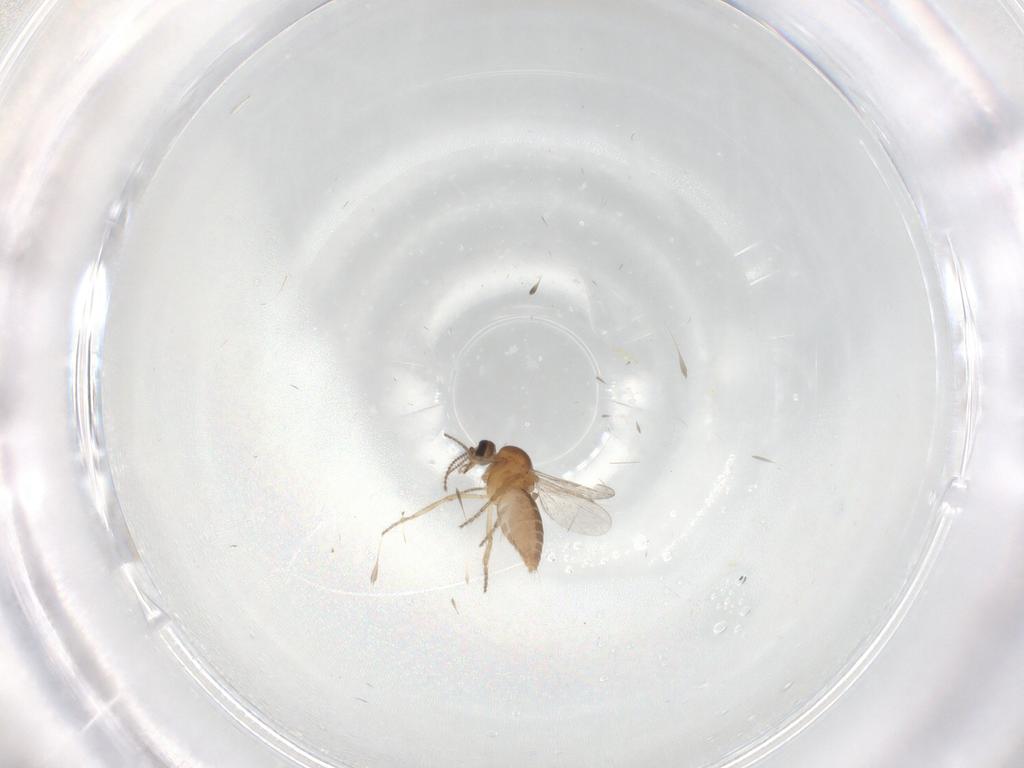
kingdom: Animalia
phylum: Arthropoda
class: Insecta
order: Diptera
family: Ceratopogonidae
